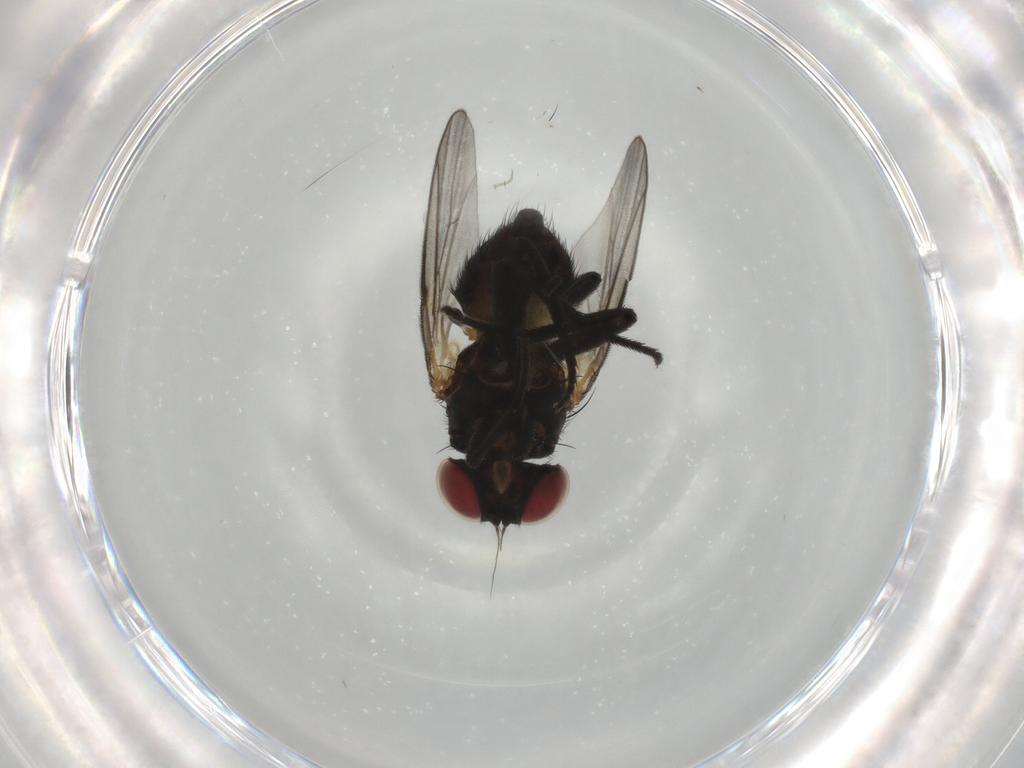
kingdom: Animalia
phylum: Arthropoda
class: Insecta
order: Diptera
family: Agromyzidae
